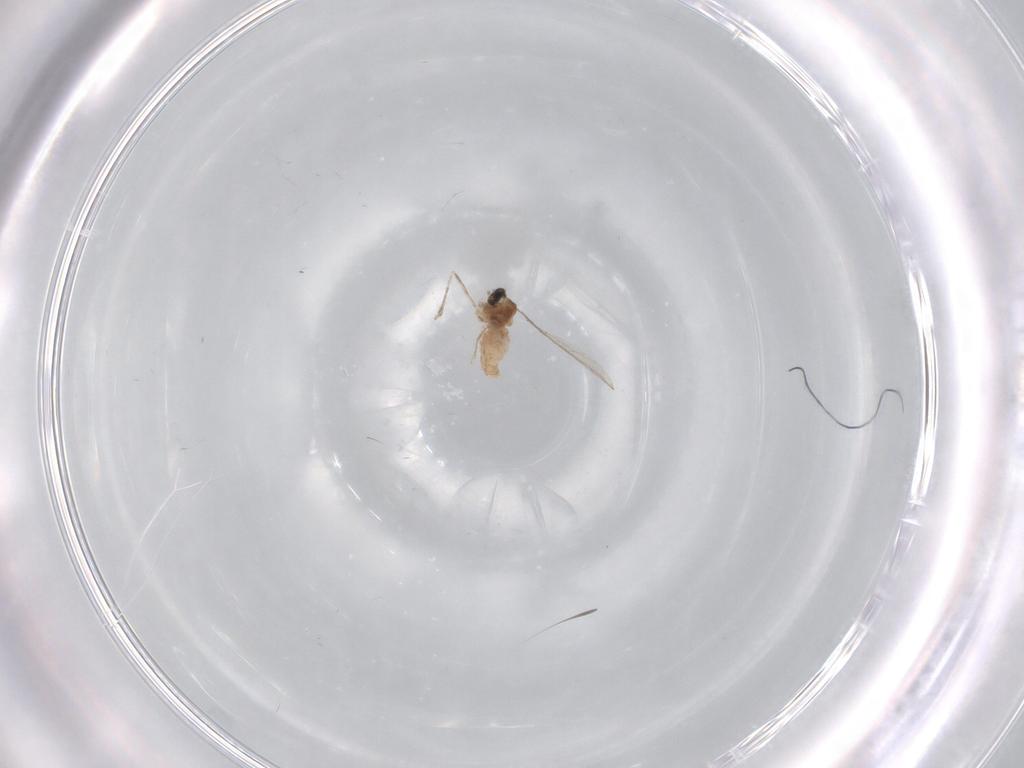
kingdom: Animalia
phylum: Arthropoda
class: Insecta
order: Diptera
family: Cecidomyiidae
